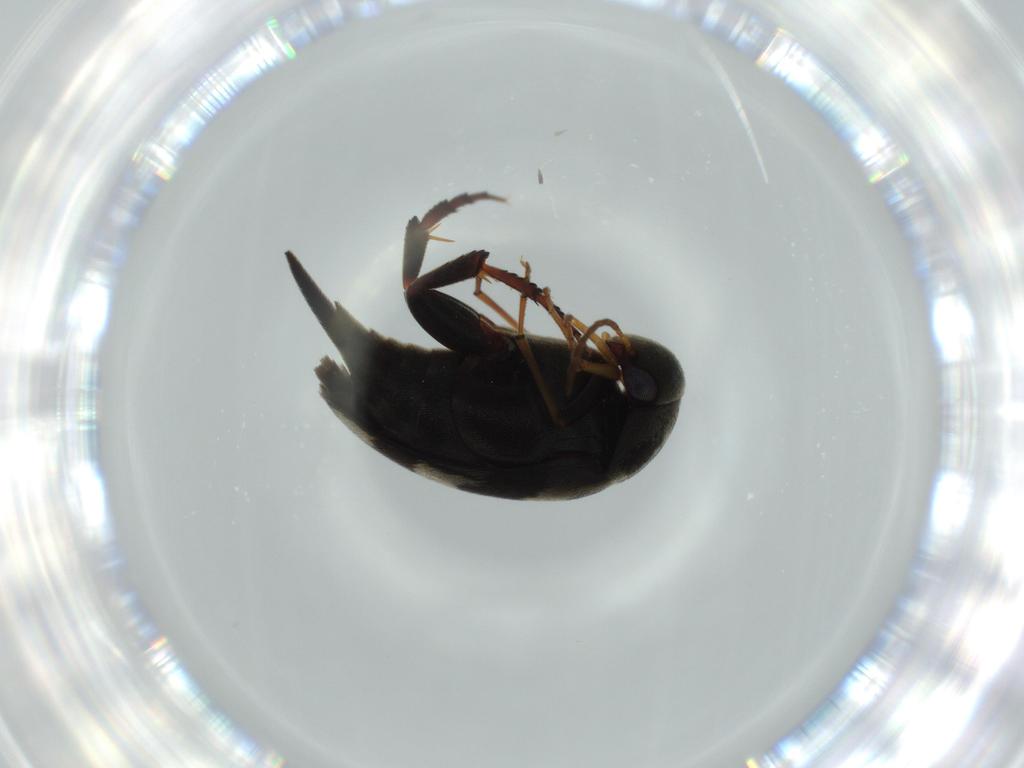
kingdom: Animalia
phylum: Arthropoda
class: Insecta
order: Coleoptera
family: Mordellidae
